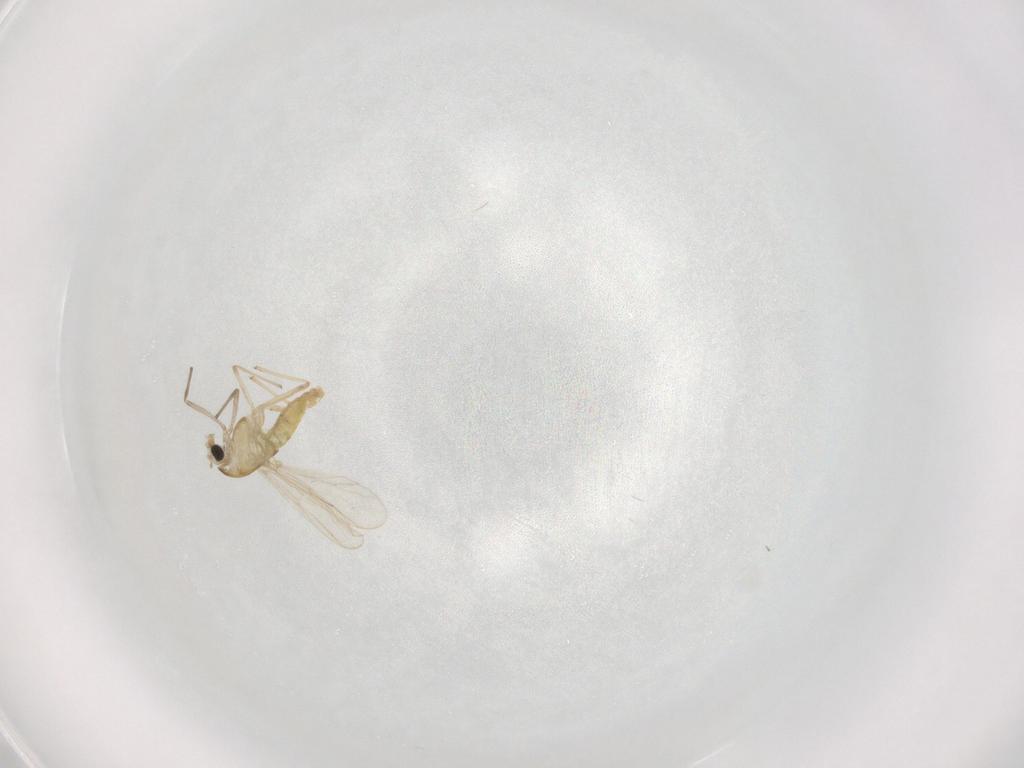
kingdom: Animalia
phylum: Arthropoda
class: Insecta
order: Diptera
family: Chironomidae
